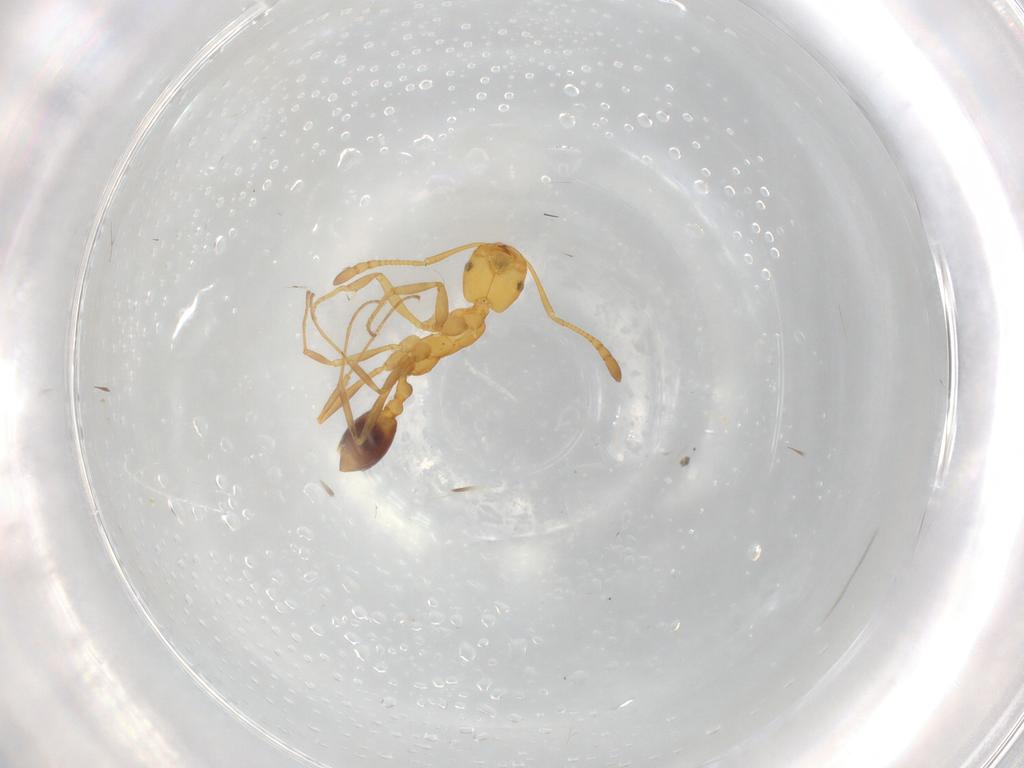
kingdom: Animalia
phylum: Arthropoda
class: Insecta
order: Hymenoptera
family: Formicidae
